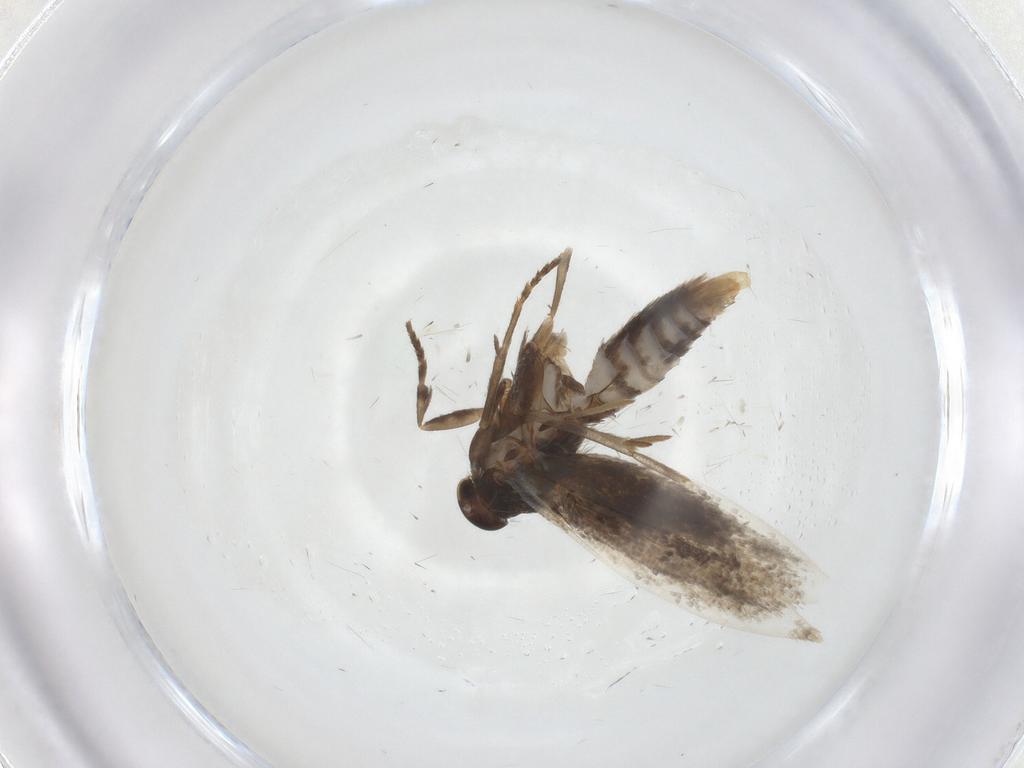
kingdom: Animalia
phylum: Arthropoda
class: Insecta
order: Lepidoptera
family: Elachistidae
